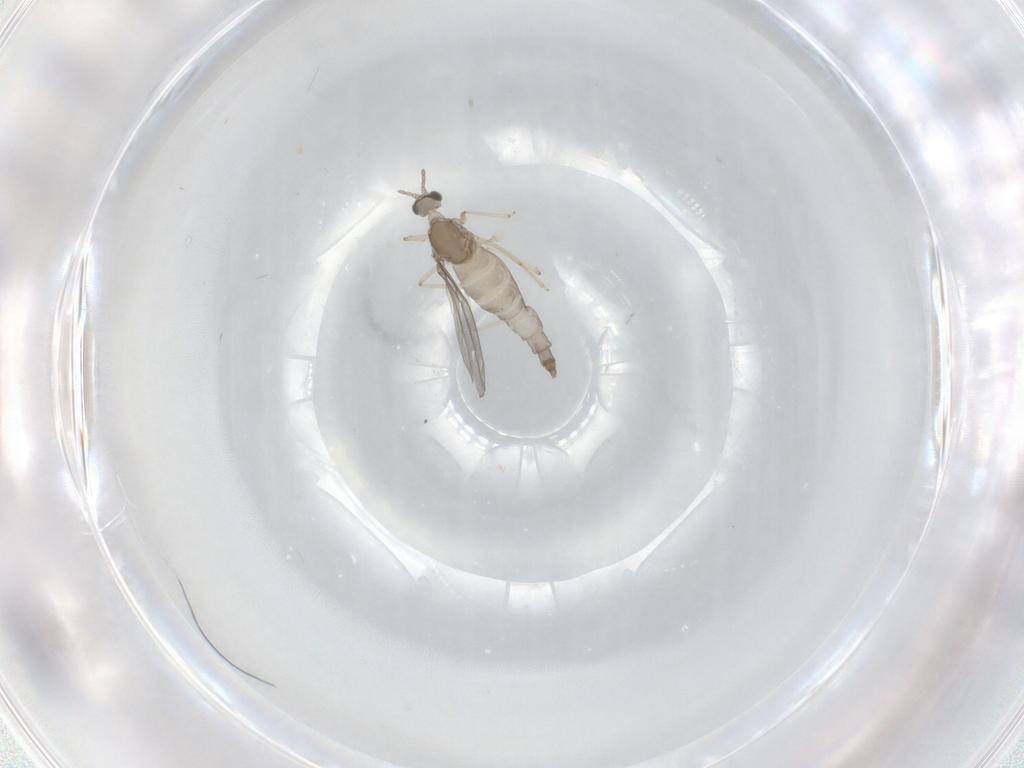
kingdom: Animalia
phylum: Arthropoda
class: Insecta
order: Diptera
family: Cecidomyiidae
